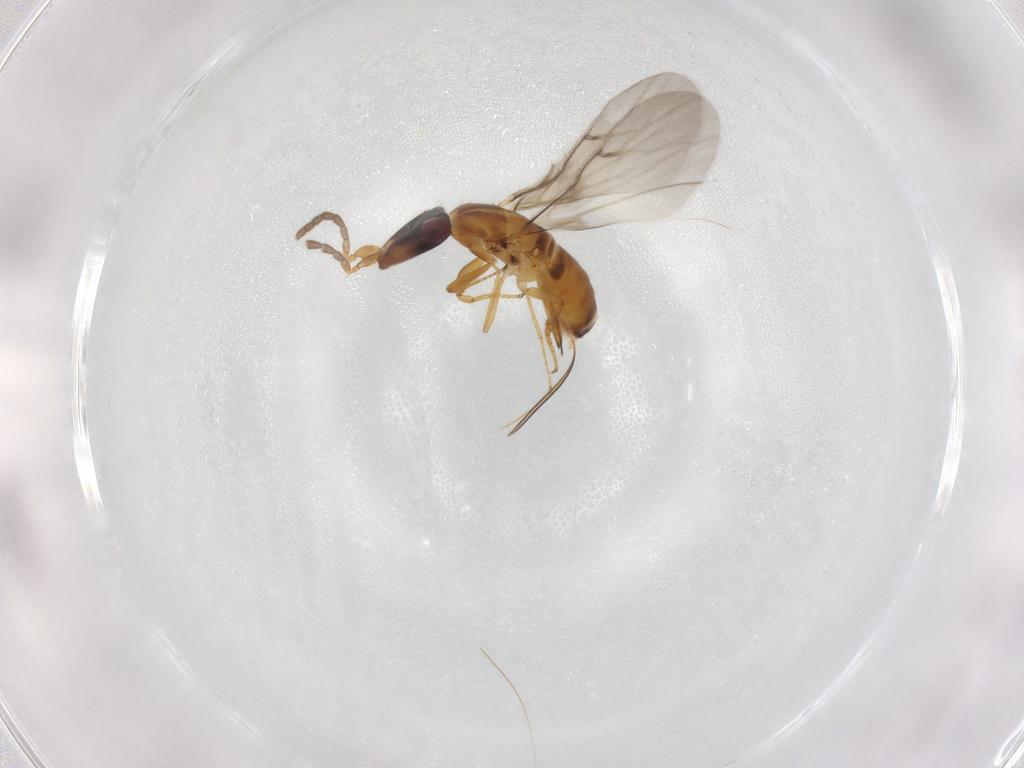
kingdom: Animalia
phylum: Arthropoda
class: Insecta
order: Hymenoptera
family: Agaonidae
